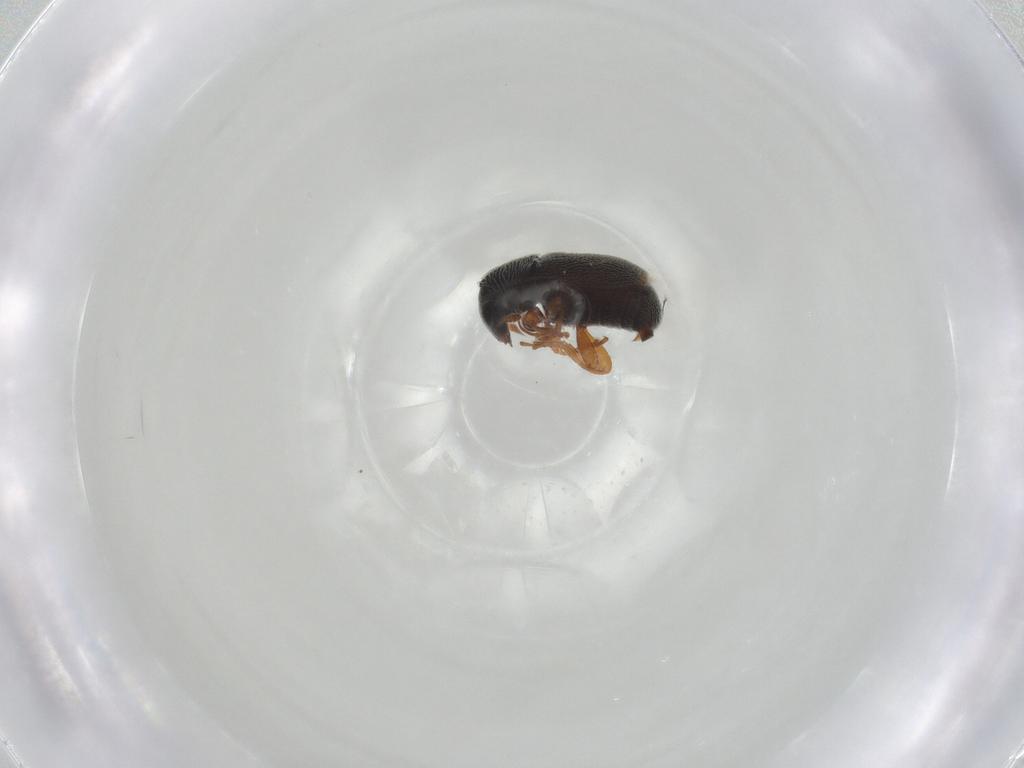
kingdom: Animalia
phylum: Arthropoda
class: Insecta
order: Coleoptera
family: Anthribidae
